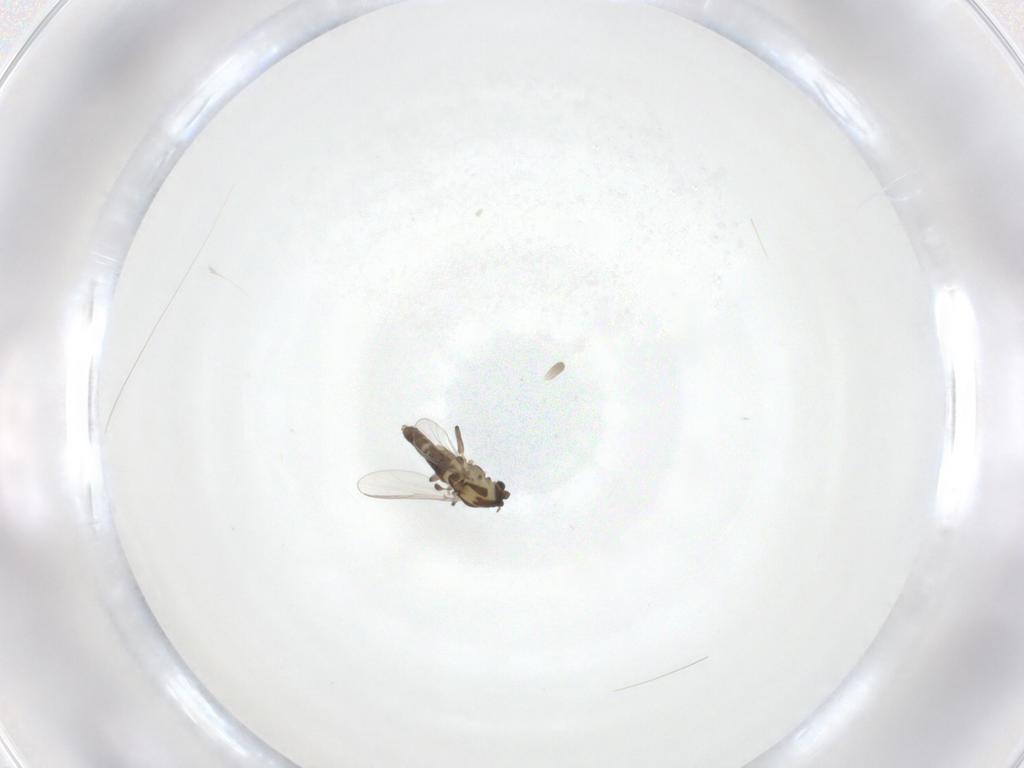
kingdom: Animalia
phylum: Arthropoda
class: Insecta
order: Diptera
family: Chironomidae
